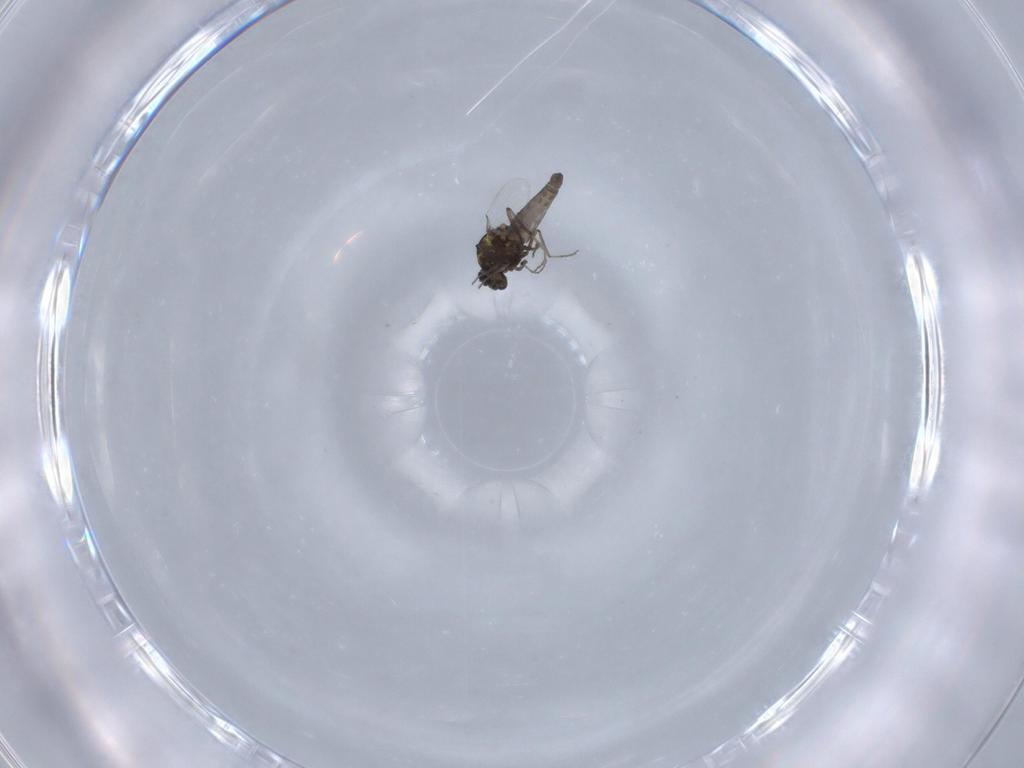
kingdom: Animalia
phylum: Arthropoda
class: Insecta
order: Diptera
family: Ceratopogonidae
